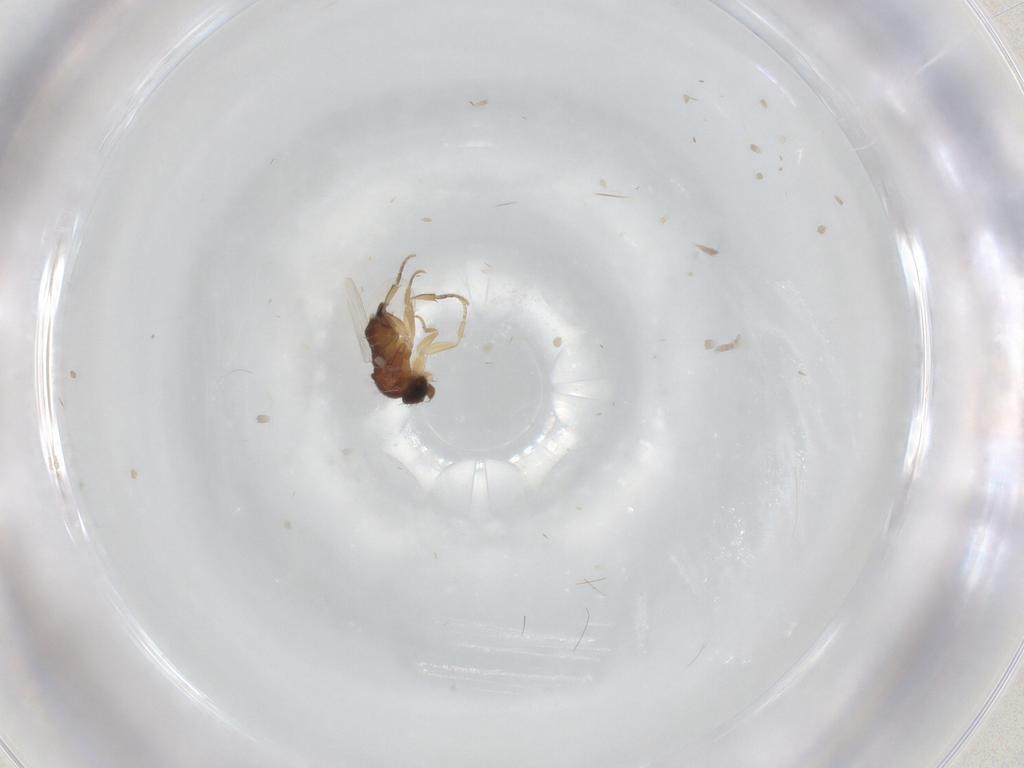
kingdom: Animalia
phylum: Arthropoda
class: Insecta
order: Diptera
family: Phoridae
